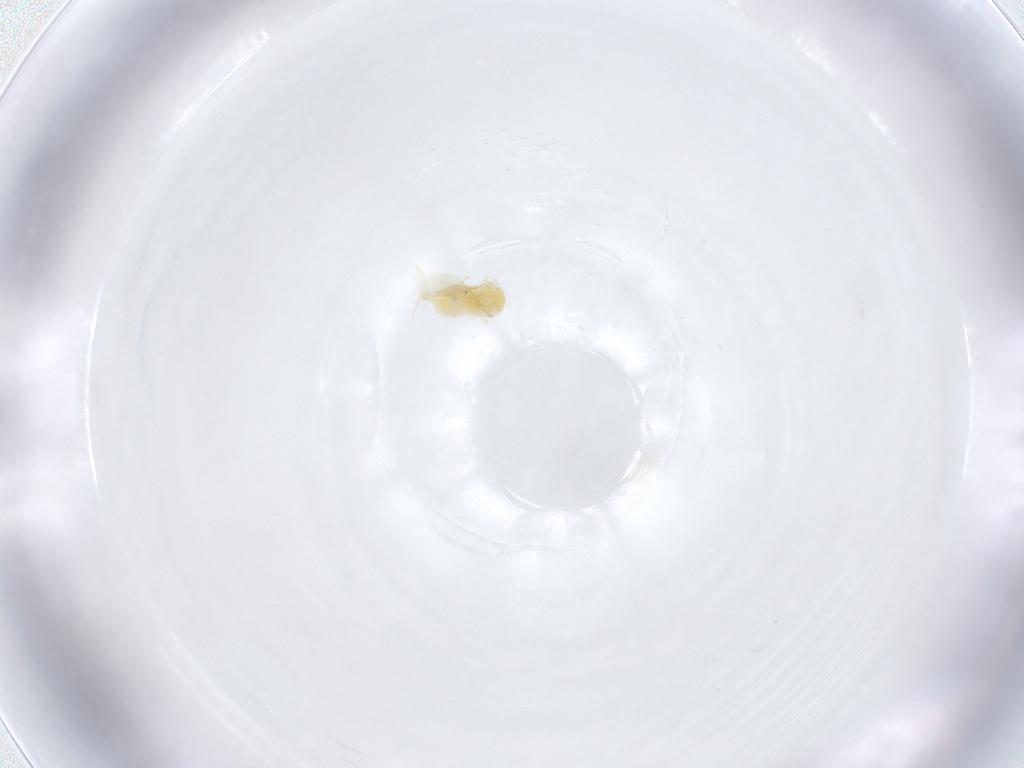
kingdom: Animalia
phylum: Arthropoda
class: Insecta
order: Hymenoptera
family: Aphelinidae
